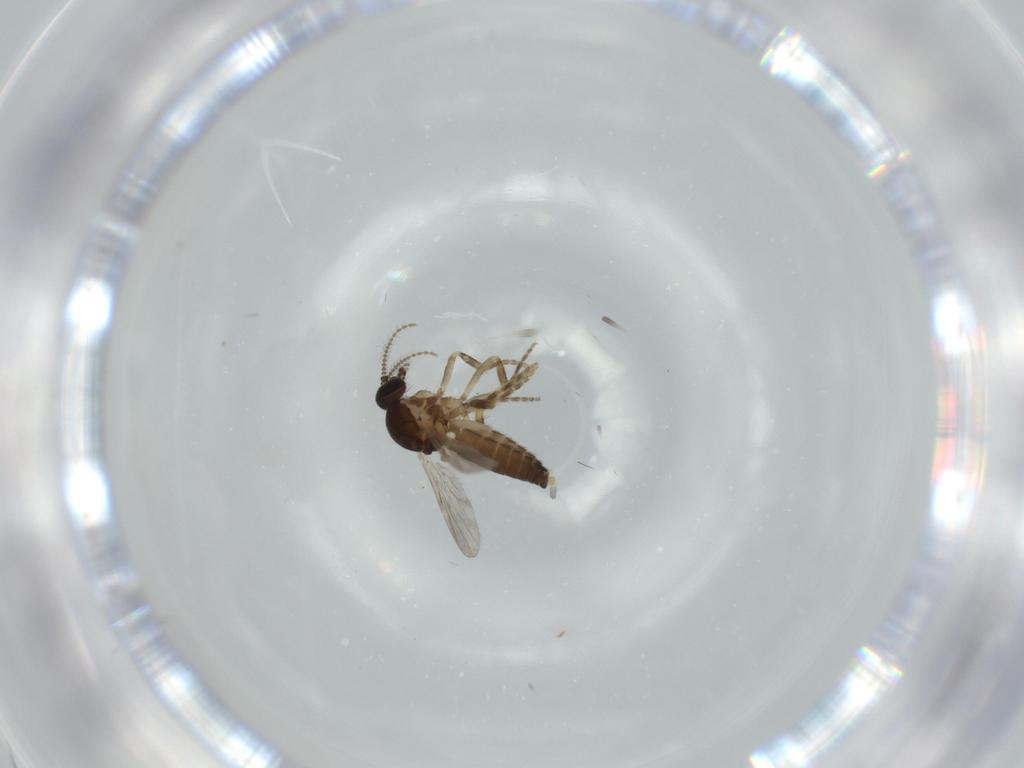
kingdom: Animalia
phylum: Arthropoda
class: Insecta
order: Diptera
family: Ceratopogonidae
